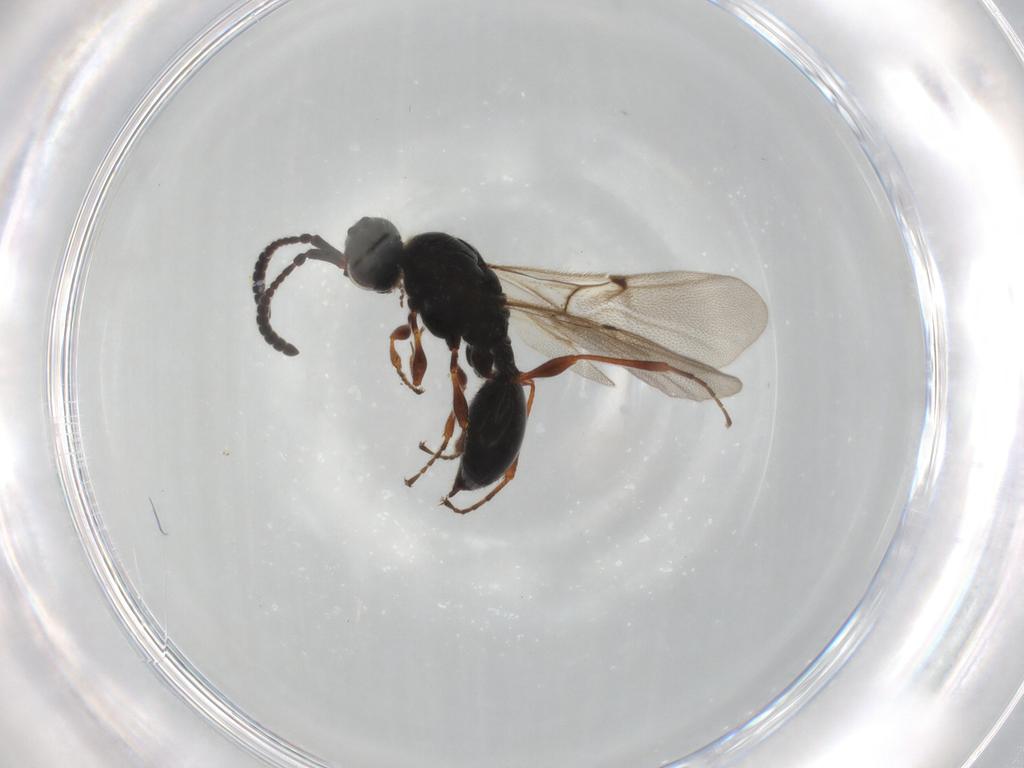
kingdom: Animalia
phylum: Arthropoda
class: Insecta
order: Hymenoptera
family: Diapriidae
